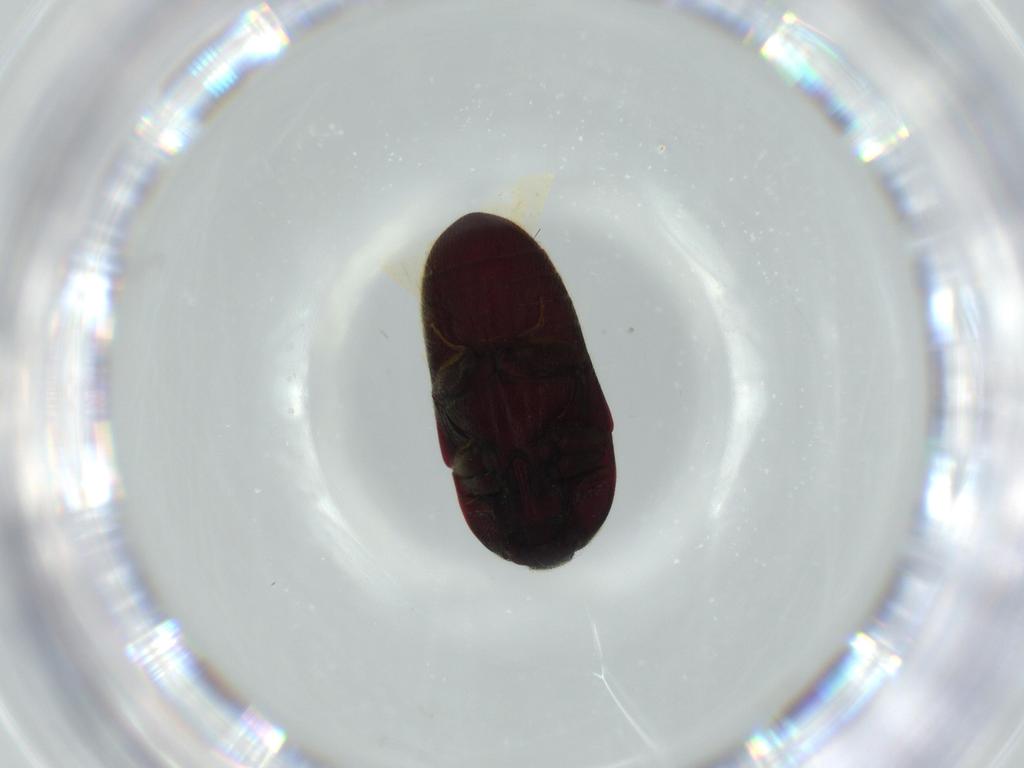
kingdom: Animalia
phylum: Arthropoda
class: Insecta
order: Coleoptera
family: Throscidae
